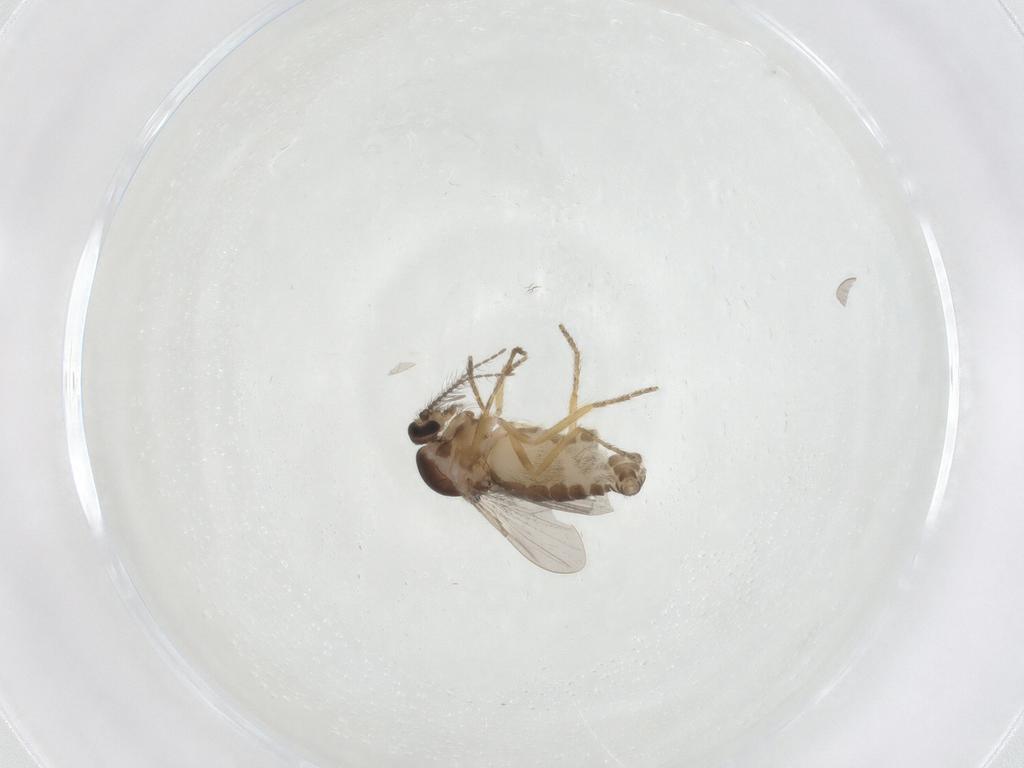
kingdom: Animalia
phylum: Arthropoda
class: Insecta
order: Diptera
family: Ceratopogonidae
